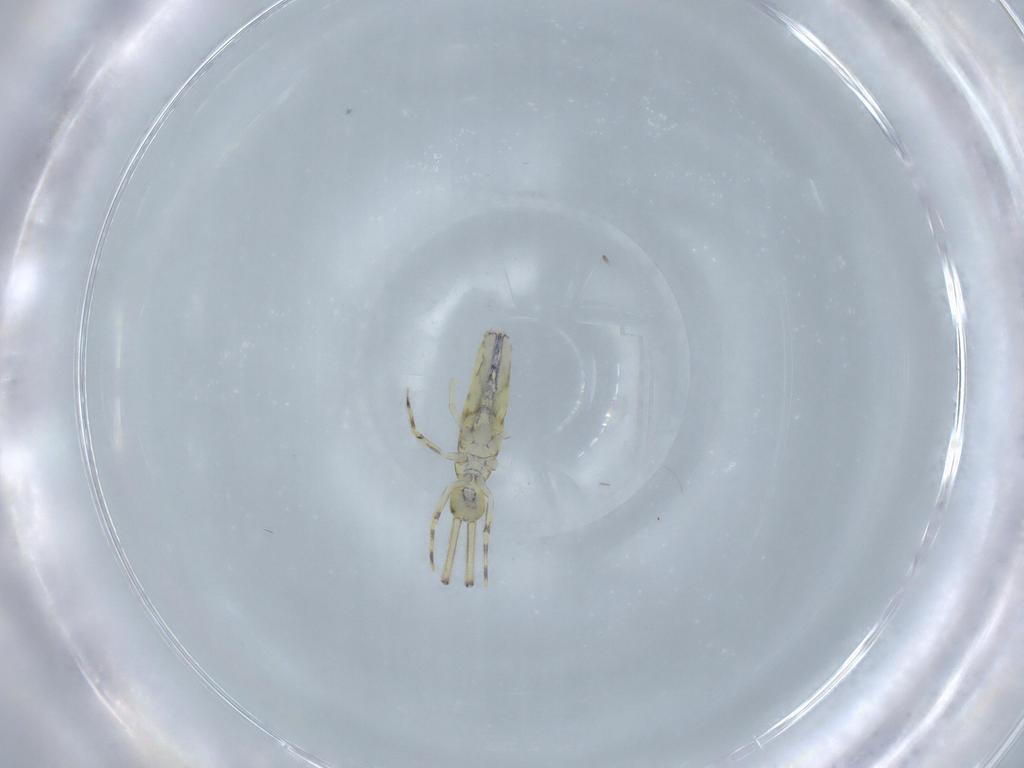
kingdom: Animalia
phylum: Arthropoda
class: Collembola
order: Entomobryomorpha
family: Paronellidae
